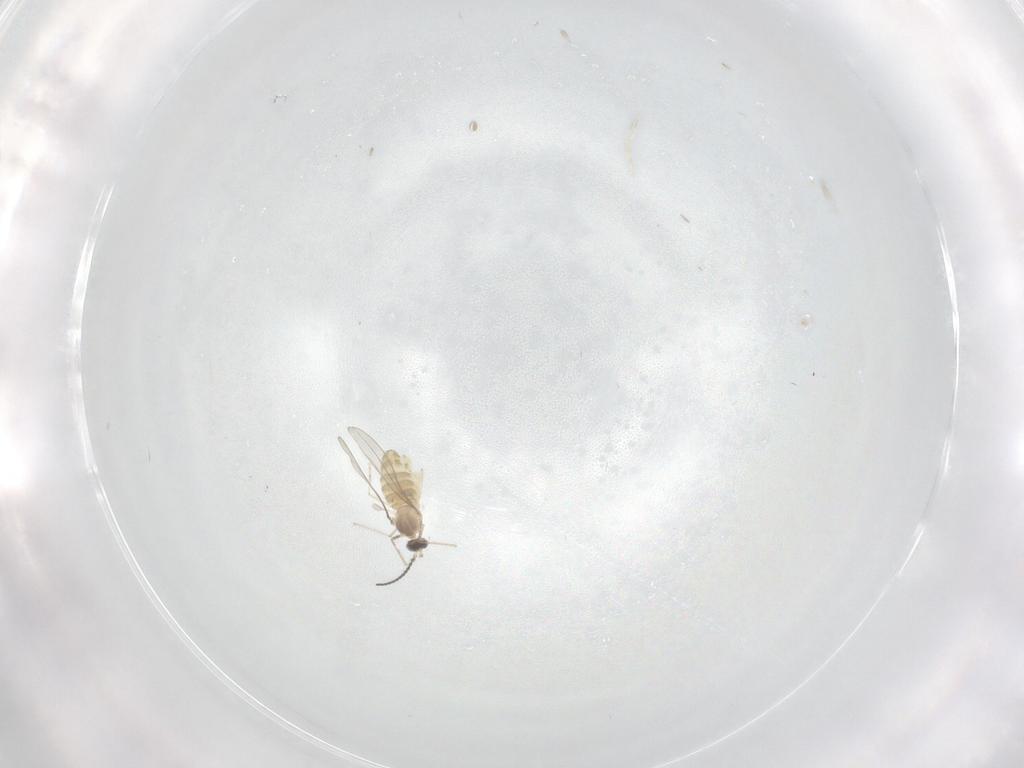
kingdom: Animalia
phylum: Arthropoda
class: Insecta
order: Diptera
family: Cecidomyiidae
